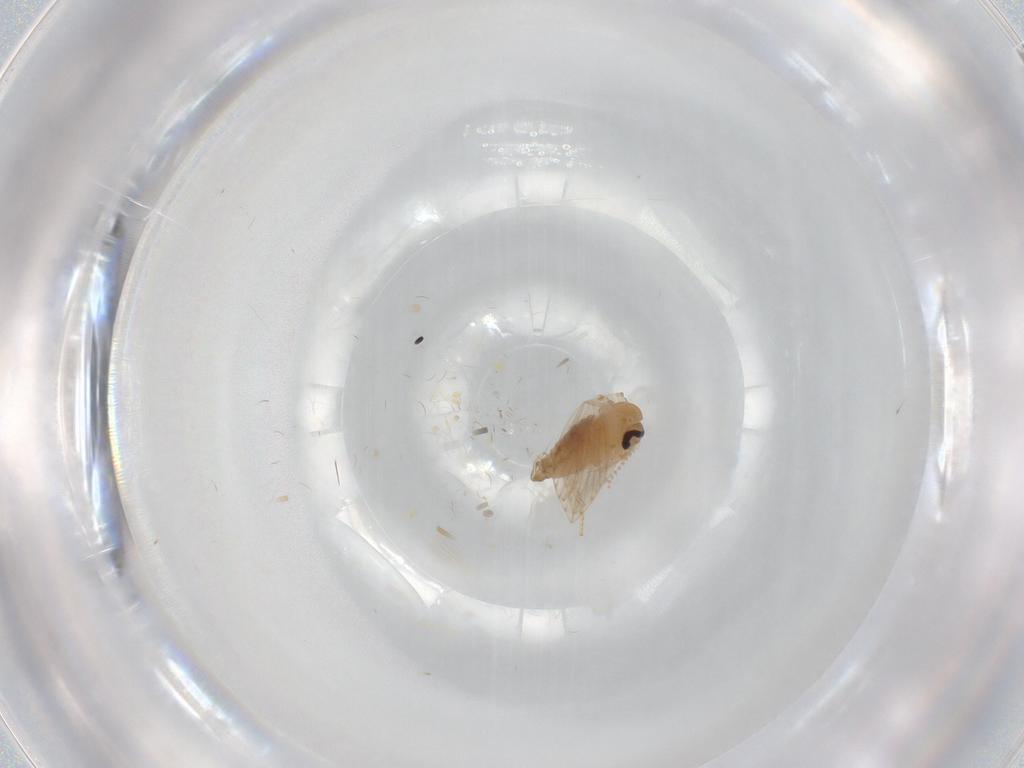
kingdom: Animalia
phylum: Arthropoda
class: Insecta
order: Diptera
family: Psychodidae
